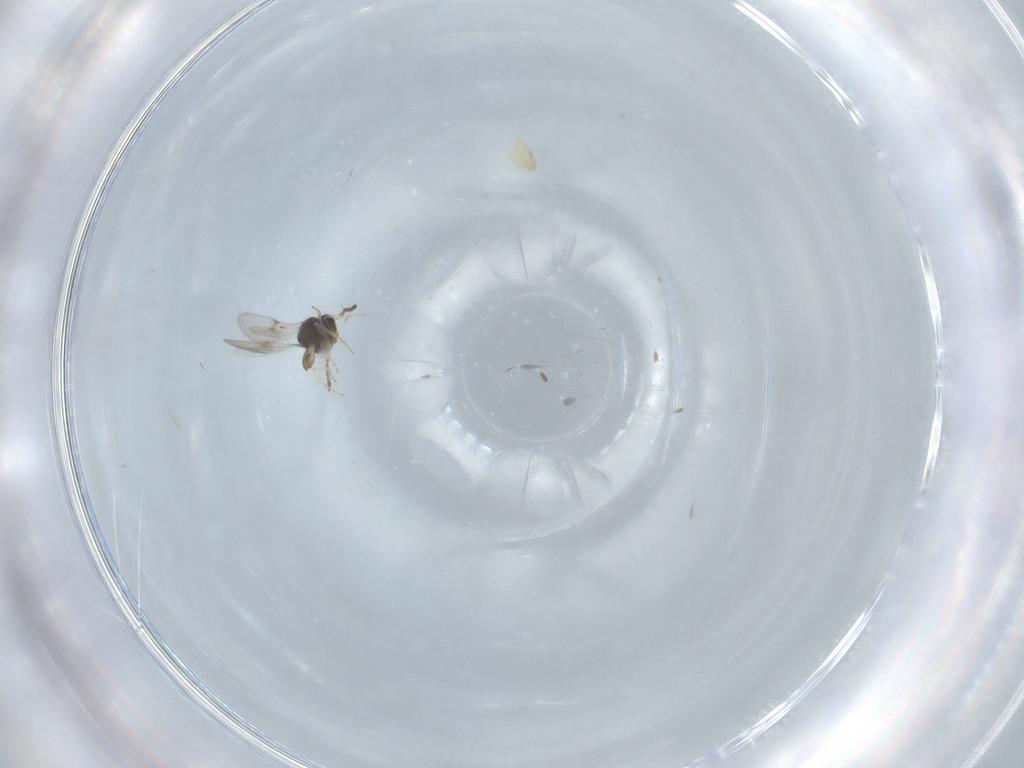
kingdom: Animalia
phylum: Arthropoda
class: Insecta
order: Hymenoptera
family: Scelionidae
